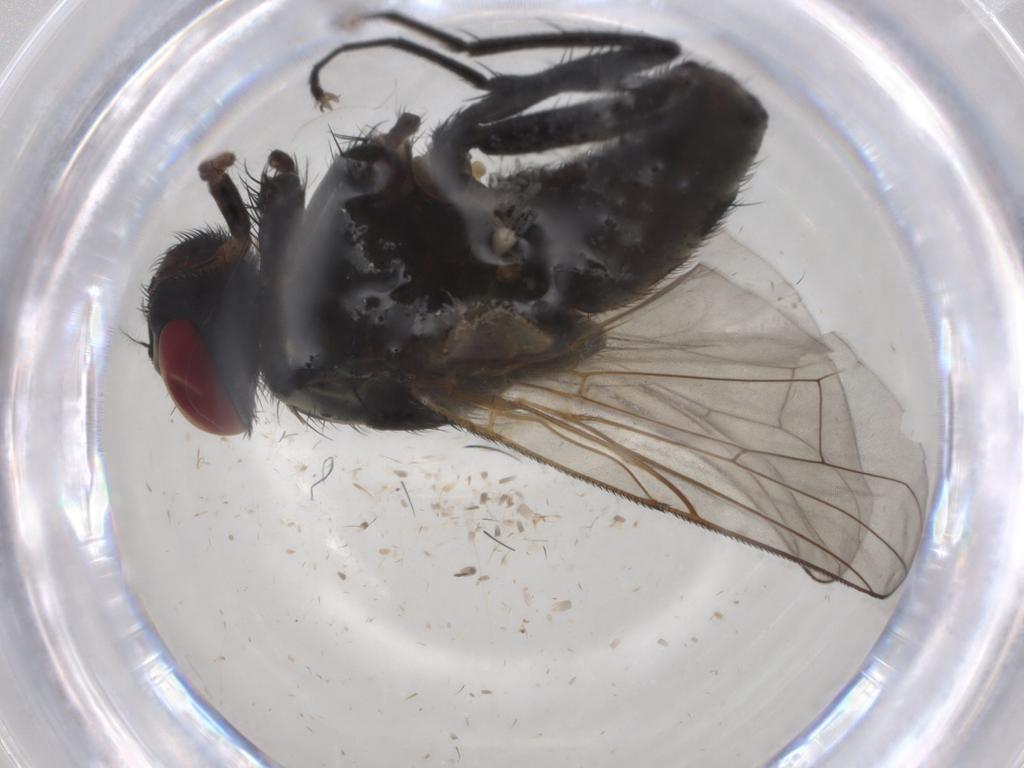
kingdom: Animalia
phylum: Arthropoda
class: Insecta
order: Diptera
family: Muscidae
